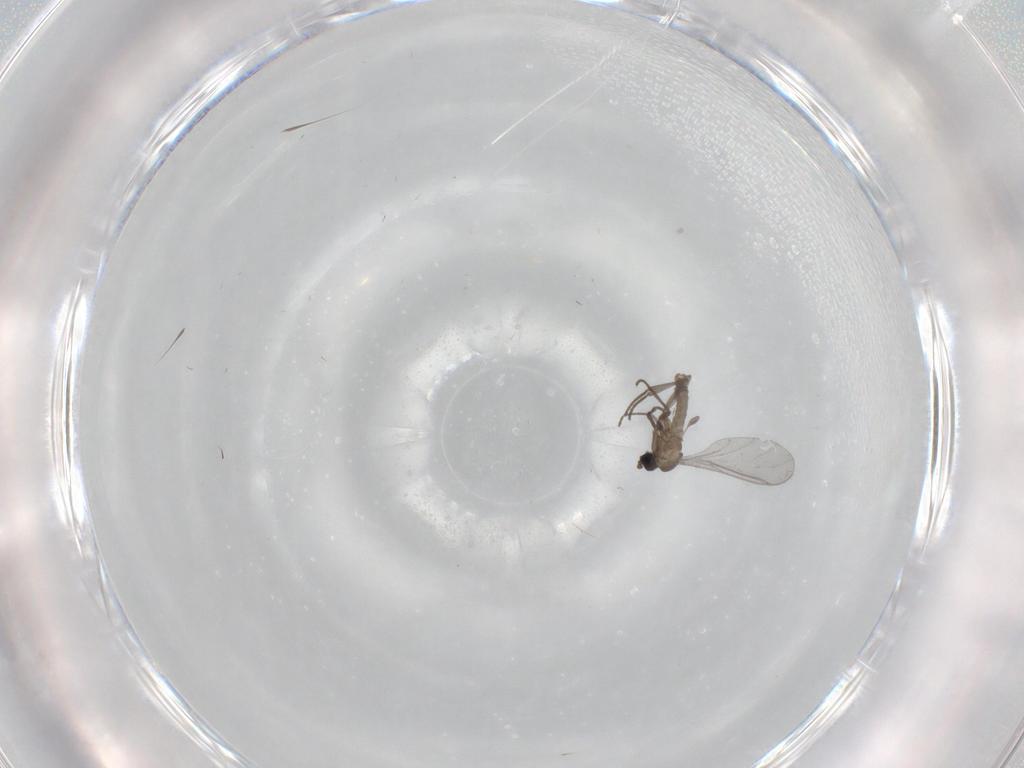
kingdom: Animalia
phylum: Arthropoda
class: Insecta
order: Diptera
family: Sciaridae
